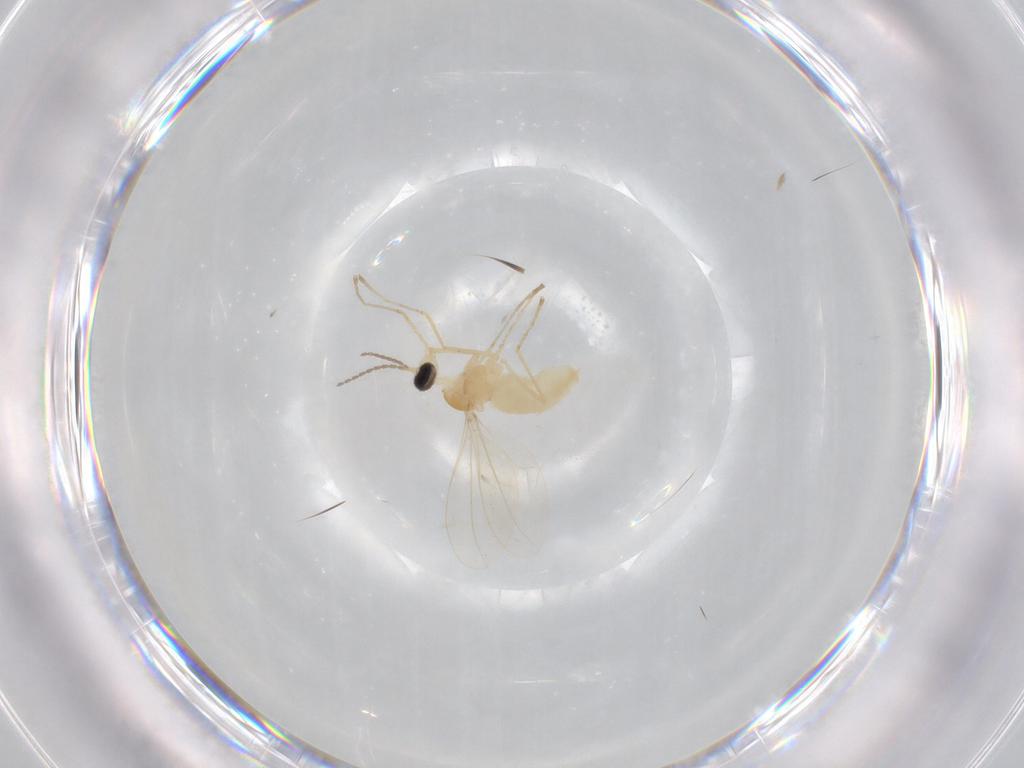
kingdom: Animalia
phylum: Arthropoda
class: Insecta
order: Diptera
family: Cecidomyiidae
